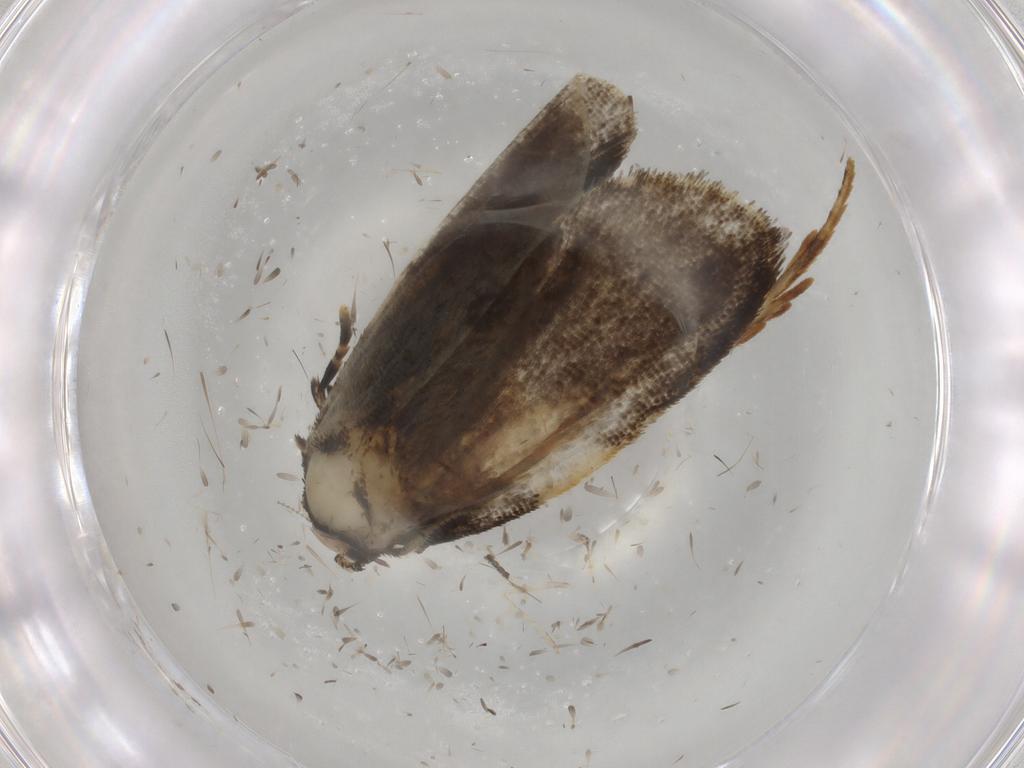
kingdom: Animalia
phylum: Arthropoda
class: Insecta
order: Lepidoptera
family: Psychidae
